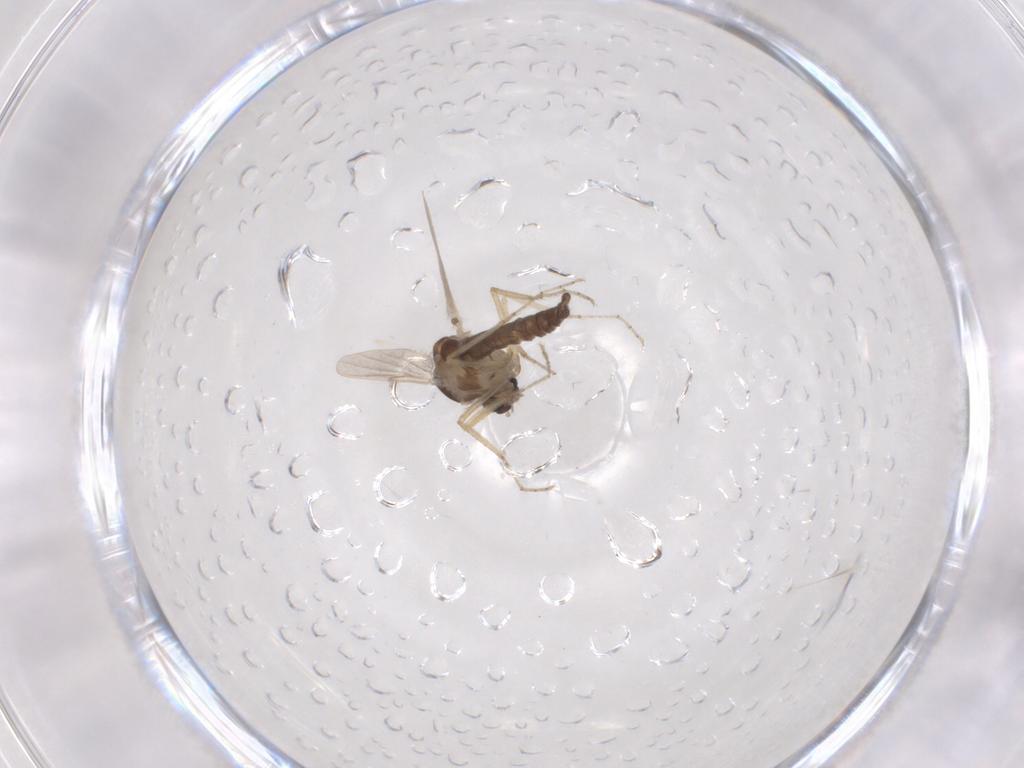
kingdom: Animalia
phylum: Arthropoda
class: Insecta
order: Diptera
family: Ceratopogonidae
